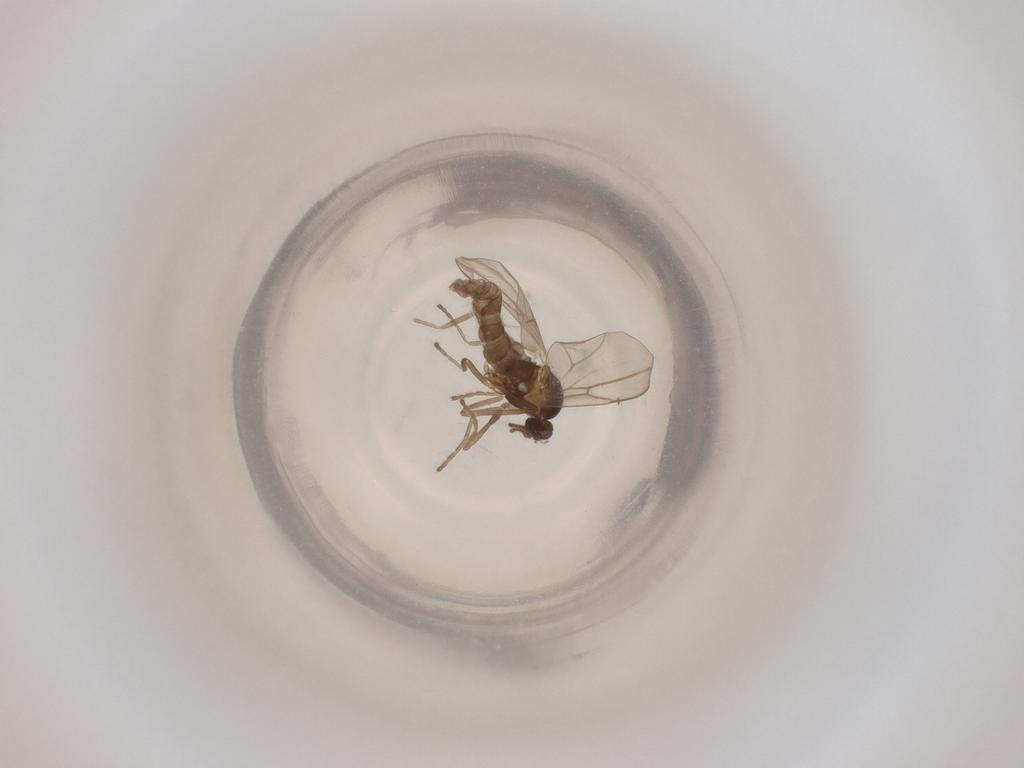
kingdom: Animalia
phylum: Arthropoda
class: Insecta
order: Diptera
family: Cecidomyiidae
